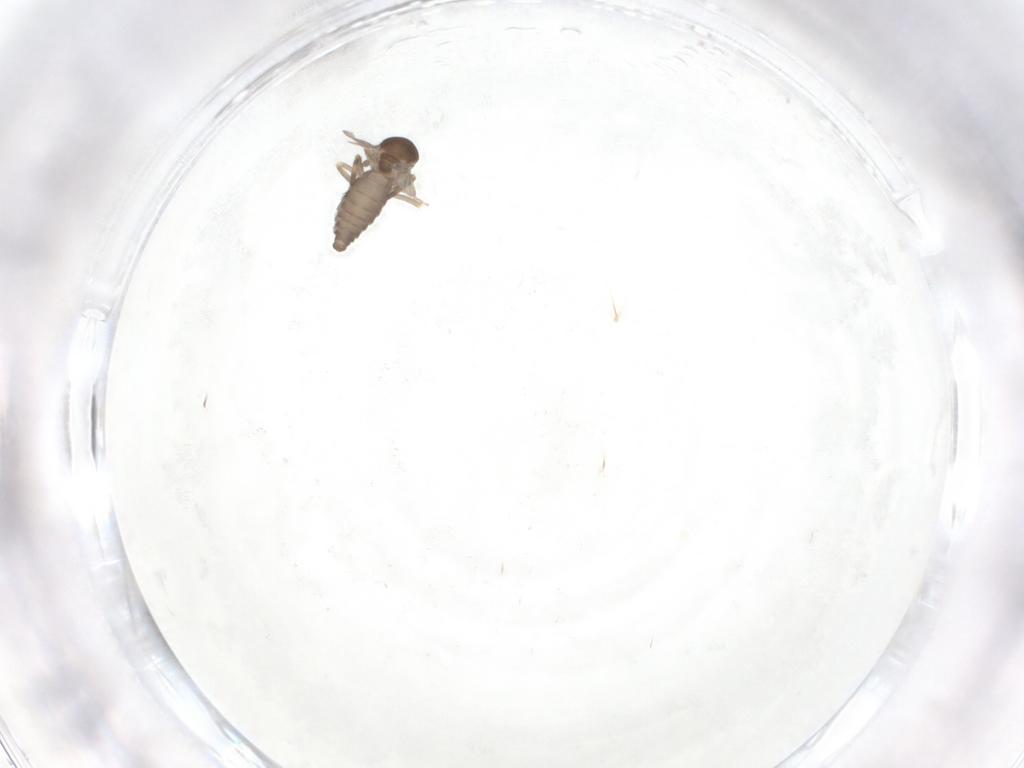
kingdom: Animalia
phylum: Arthropoda
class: Insecta
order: Diptera
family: Ceratopogonidae
